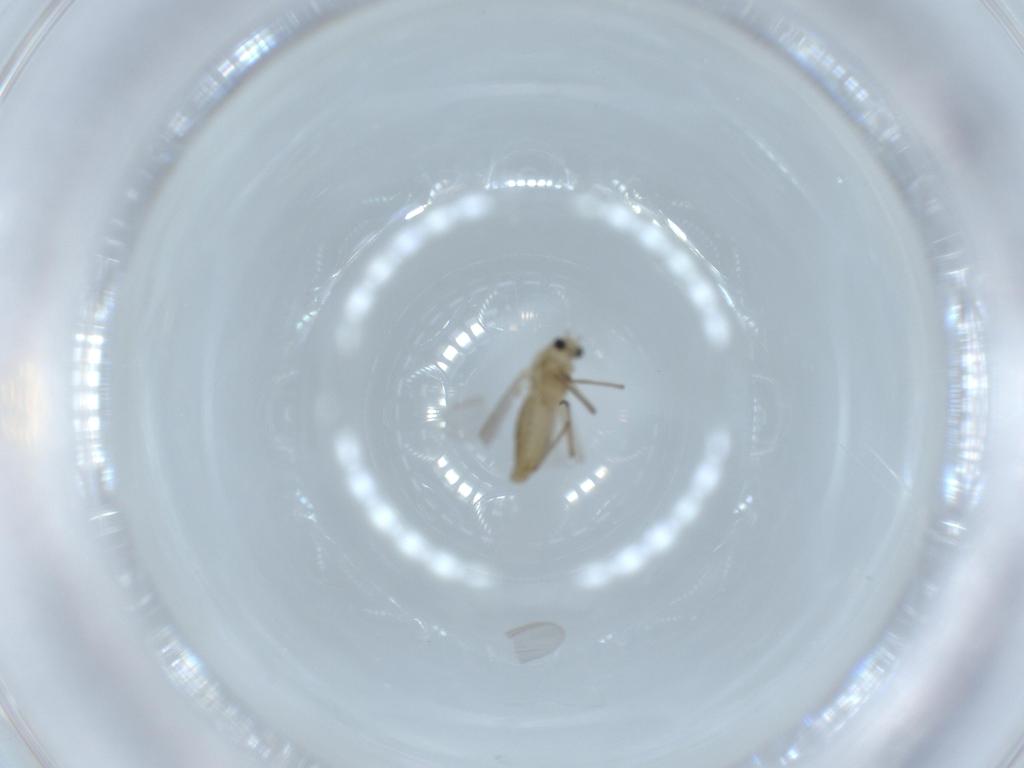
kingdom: Animalia
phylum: Arthropoda
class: Insecta
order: Diptera
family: Chironomidae
